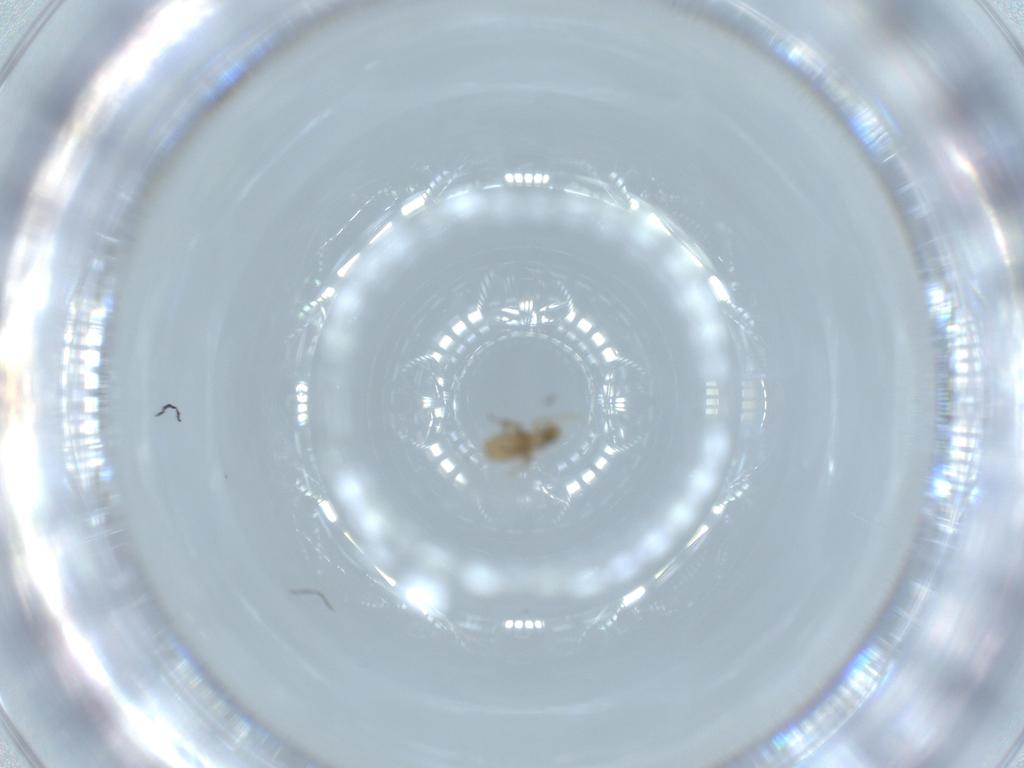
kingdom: Animalia
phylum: Arthropoda
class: Insecta
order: Diptera
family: Phoridae
